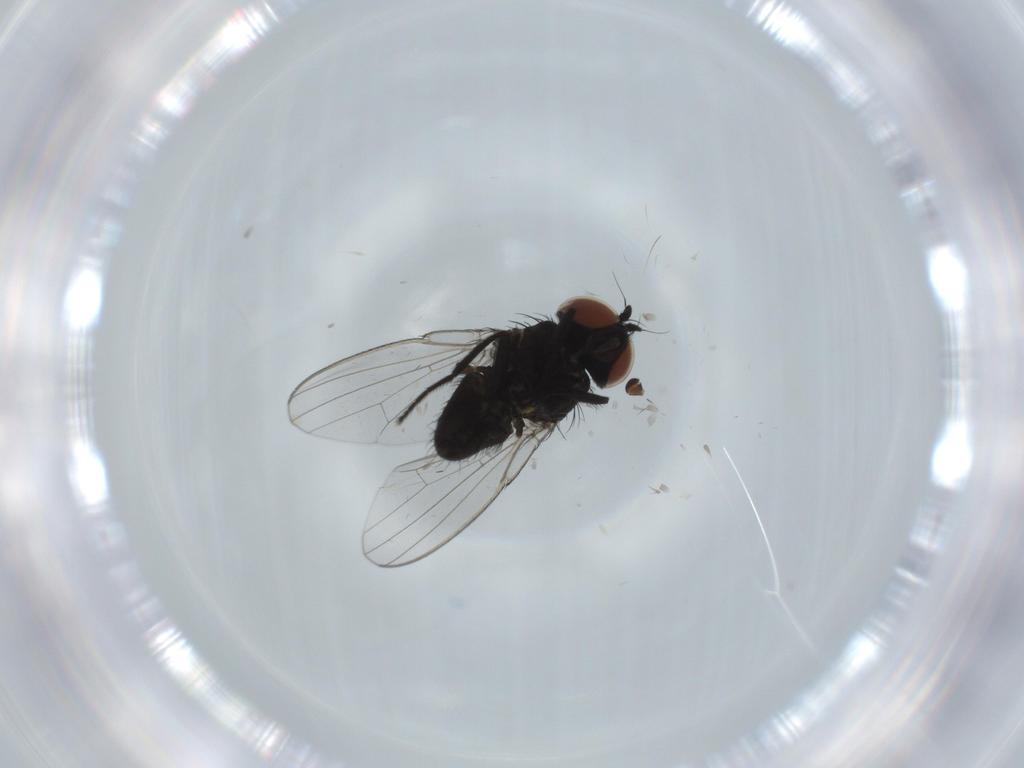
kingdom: Animalia
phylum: Arthropoda
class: Insecta
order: Diptera
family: Milichiidae
